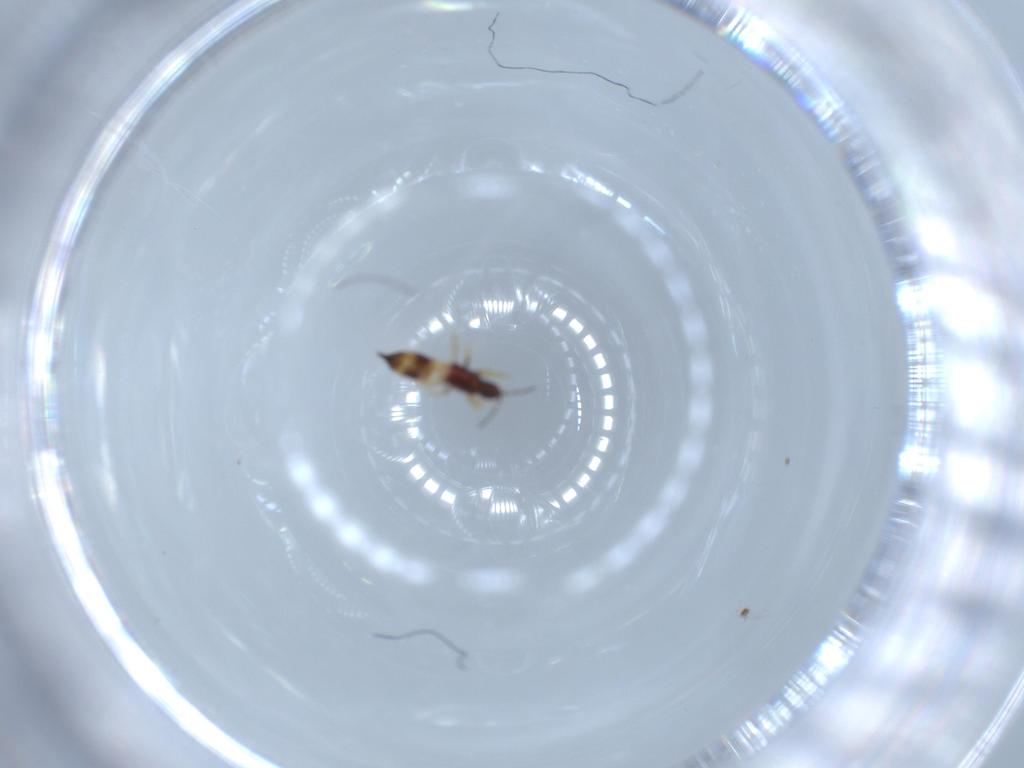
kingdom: Animalia
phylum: Arthropoda
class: Insecta
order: Thysanoptera
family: Phlaeothripidae
